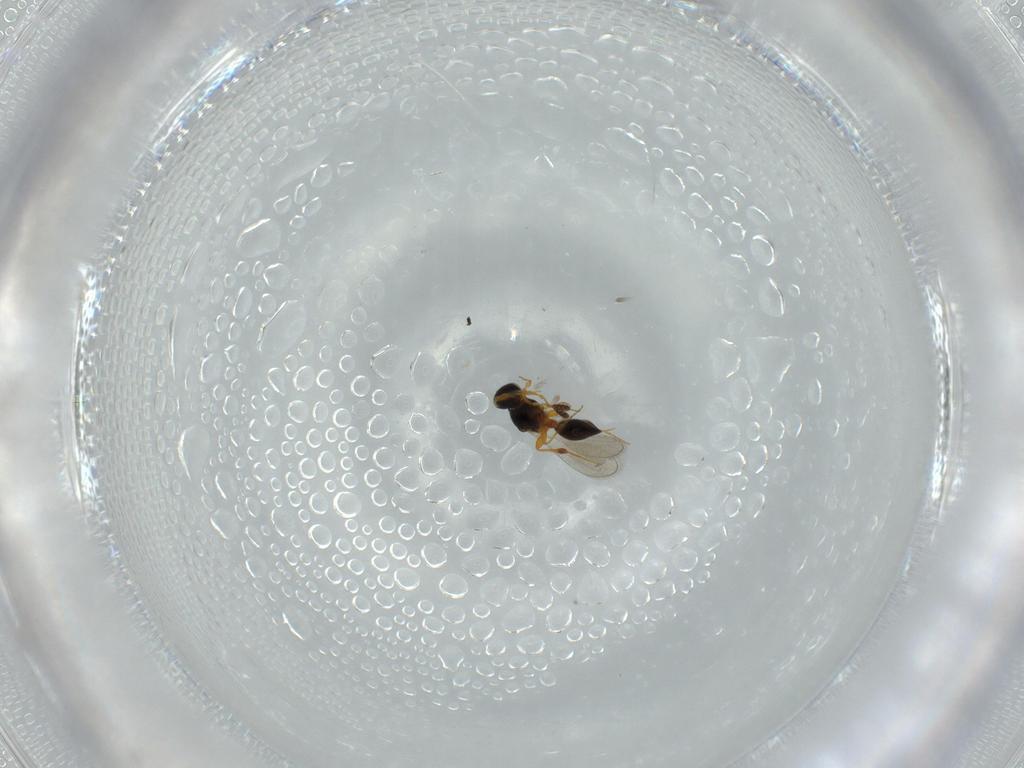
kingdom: Animalia
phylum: Arthropoda
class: Insecta
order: Hymenoptera
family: Platygastridae
